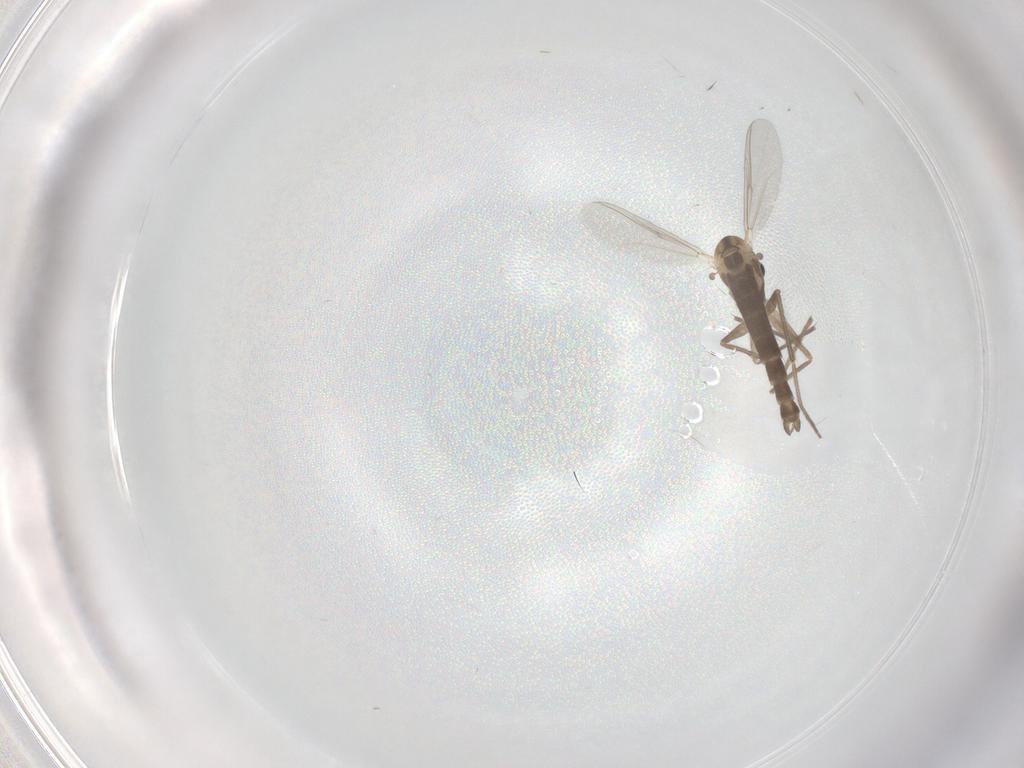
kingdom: Animalia
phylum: Arthropoda
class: Insecta
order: Diptera
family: Chironomidae
